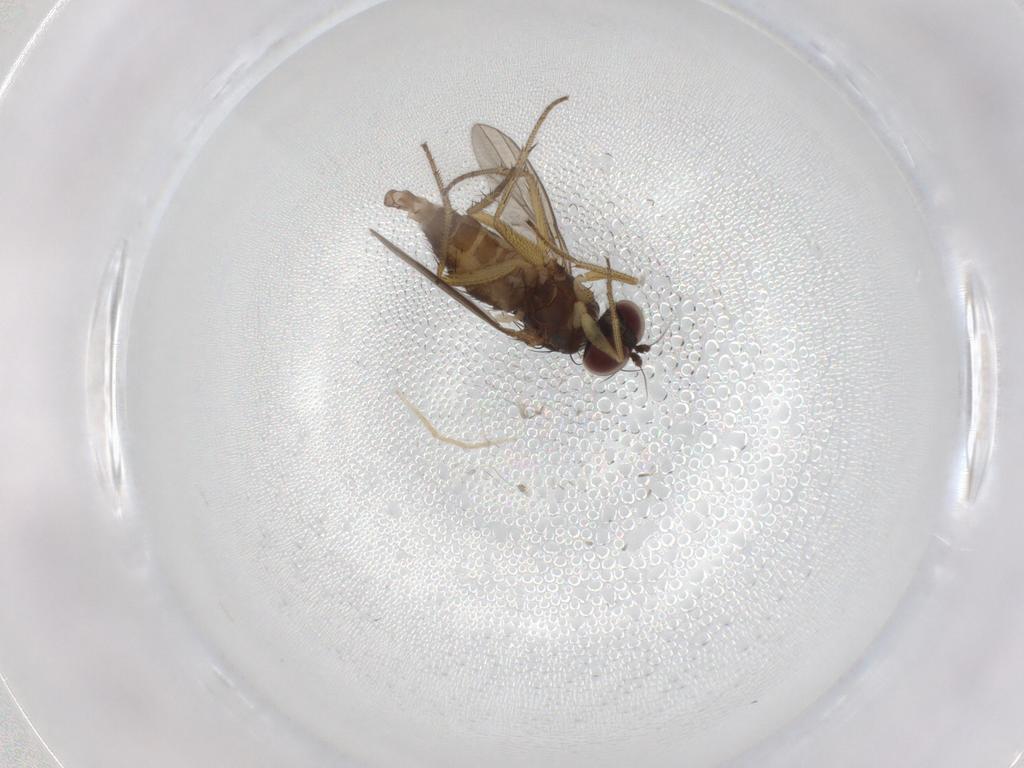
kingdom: Animalia
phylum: Arthropoda
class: Insecta
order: Diptera
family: Dolichopodidae
